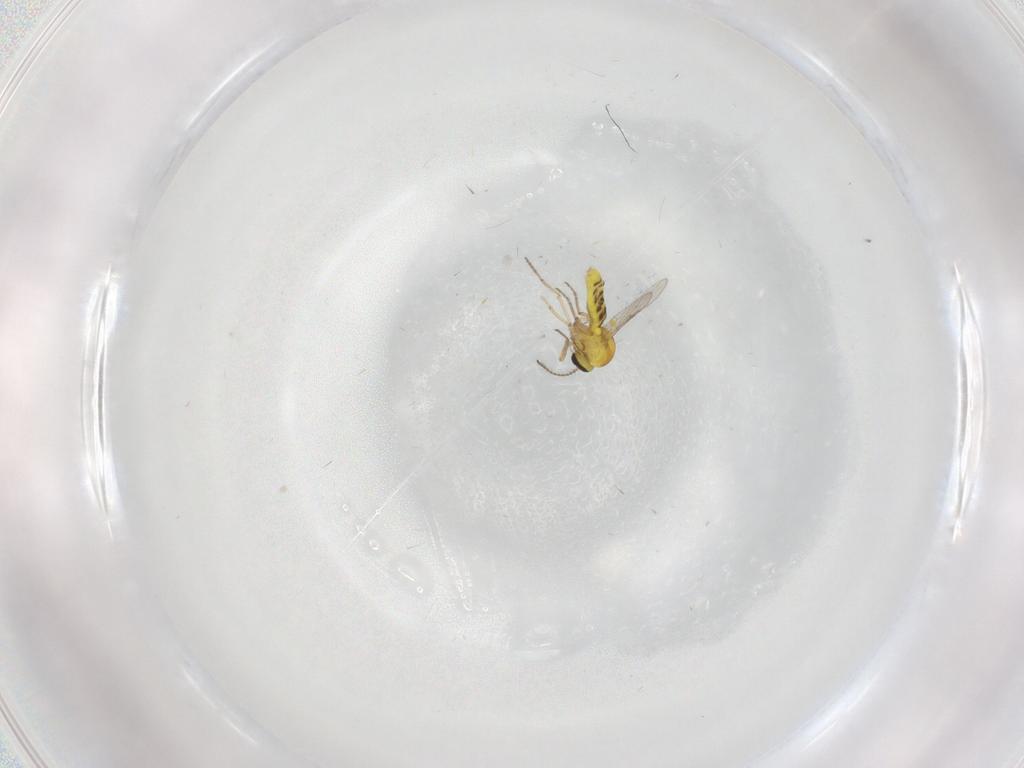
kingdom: Animalia
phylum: Arthropoda
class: Insecta
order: Diptera
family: Ceratopogonidae
